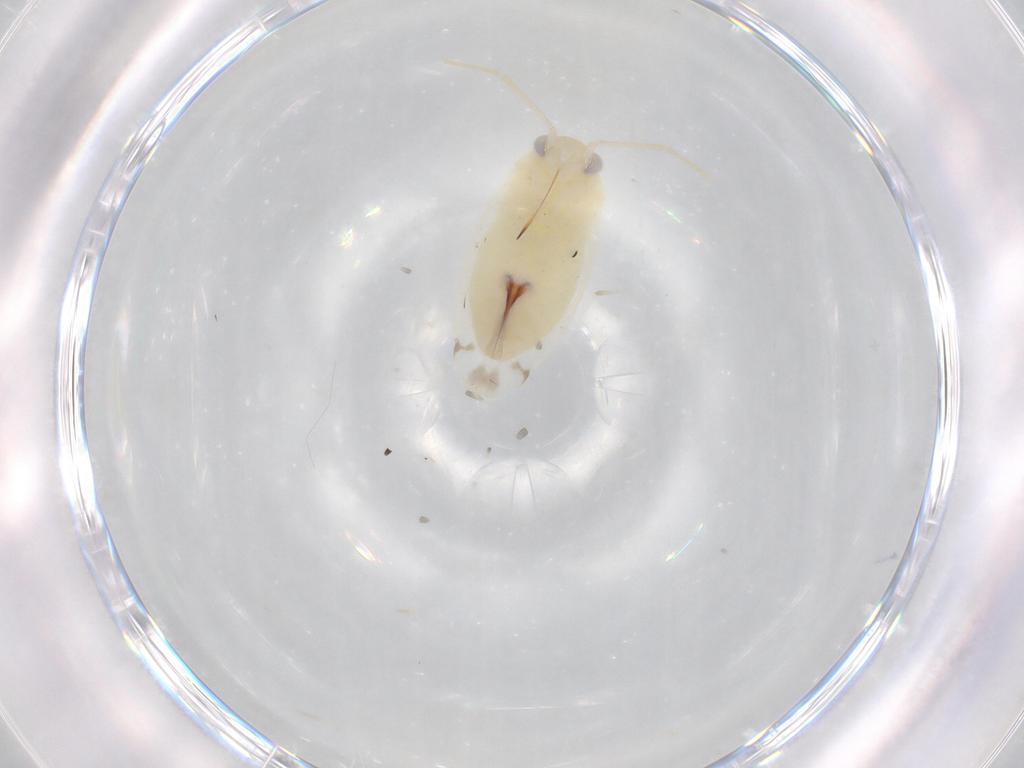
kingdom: Animalia
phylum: Arthropoda
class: Insecta
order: Hemiptera
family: Miridae
